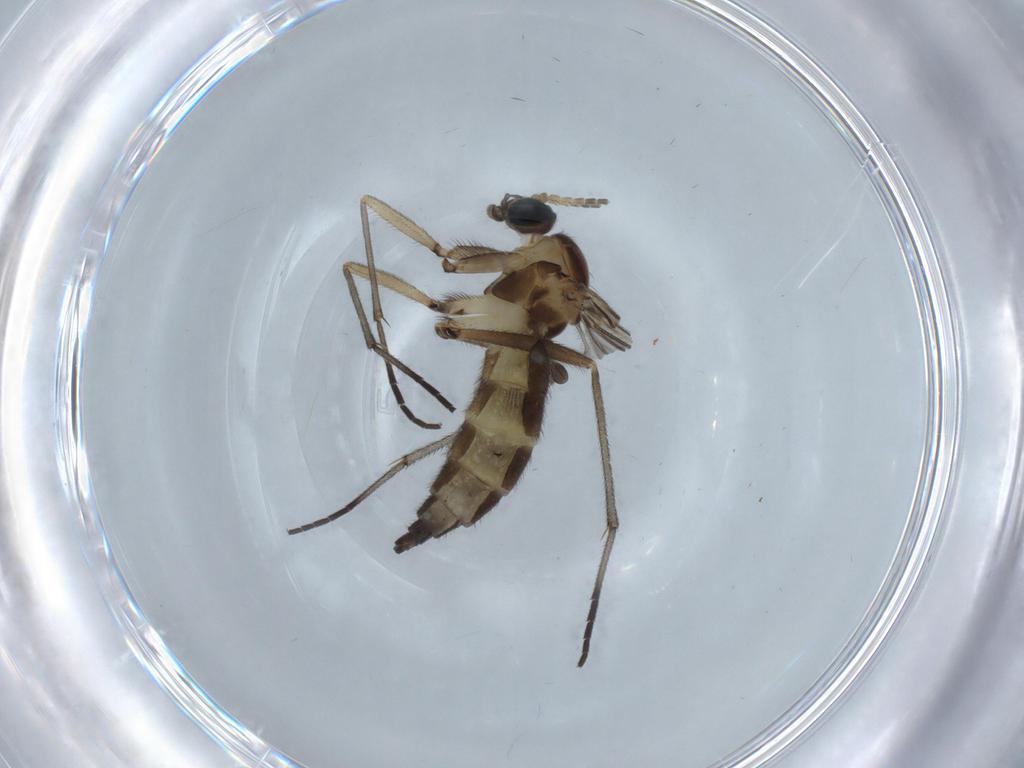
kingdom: Animalia
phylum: Arthropoda
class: Insecta
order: Diptera
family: Sciaridae
